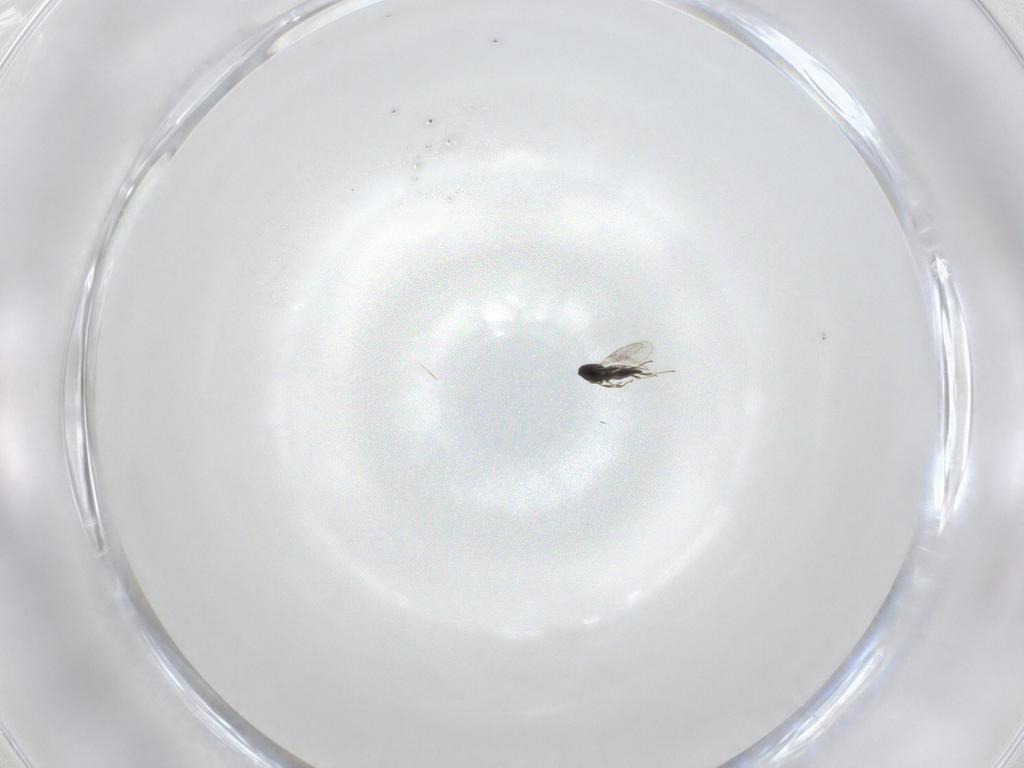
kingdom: Animalia
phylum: Arthropoda
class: Insecta
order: Hymenoptera
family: Scelionidae
